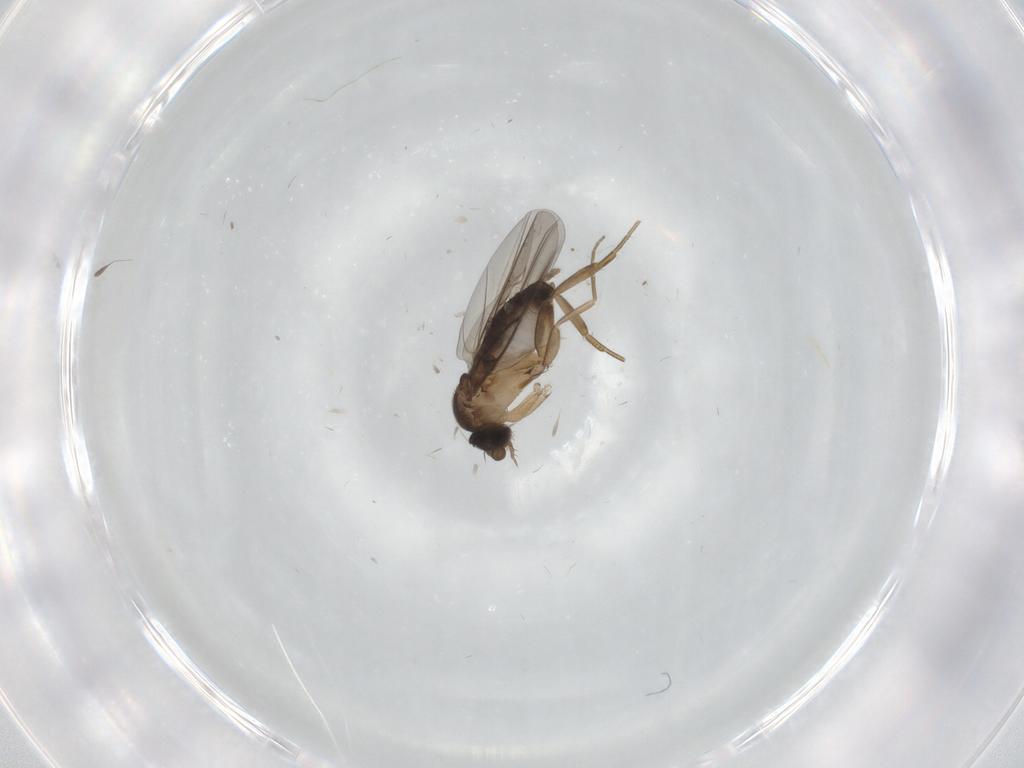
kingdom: Animalia
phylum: Arthropoda
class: Insecta
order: Diptera
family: Phoridae
